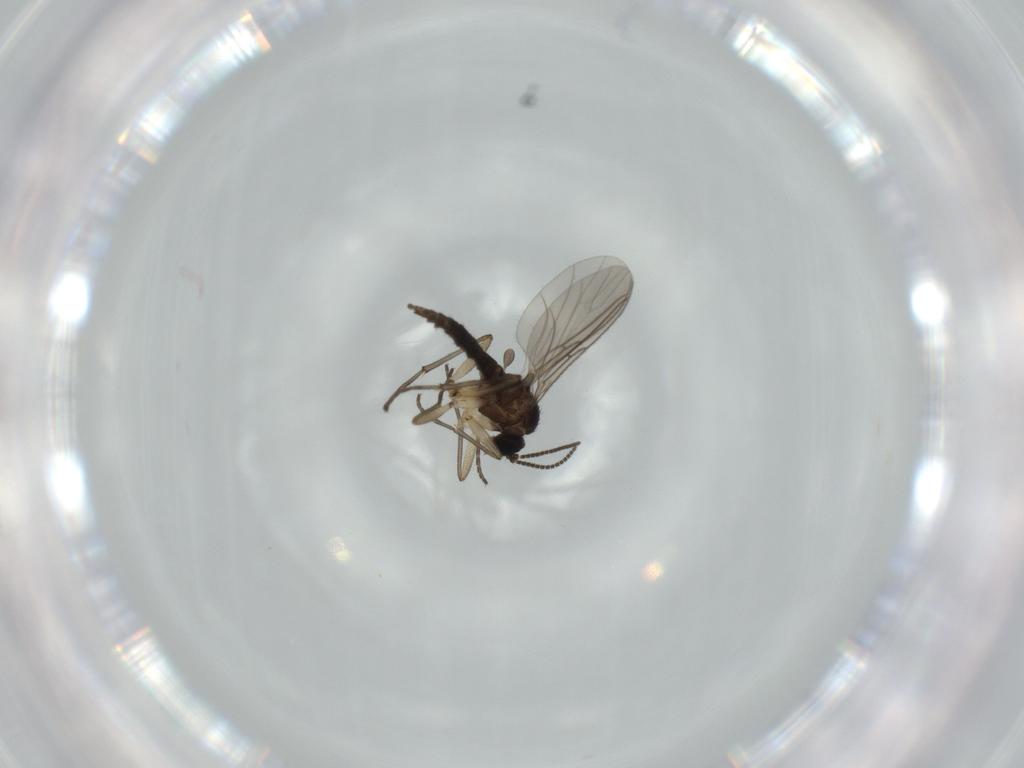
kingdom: Animalia
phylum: Arthropoda
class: Insecta
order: Diptera
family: Sciaridae
